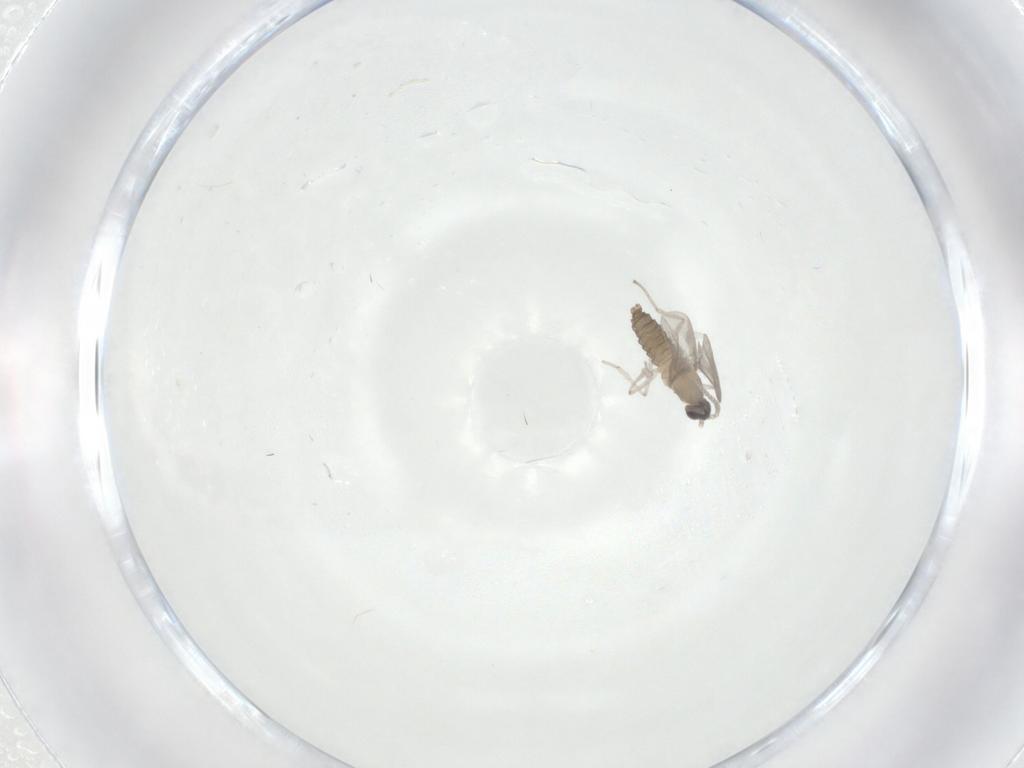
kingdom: Animalia
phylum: Arthropoda
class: Insecta
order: Diptera
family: Cecidomyiidae
